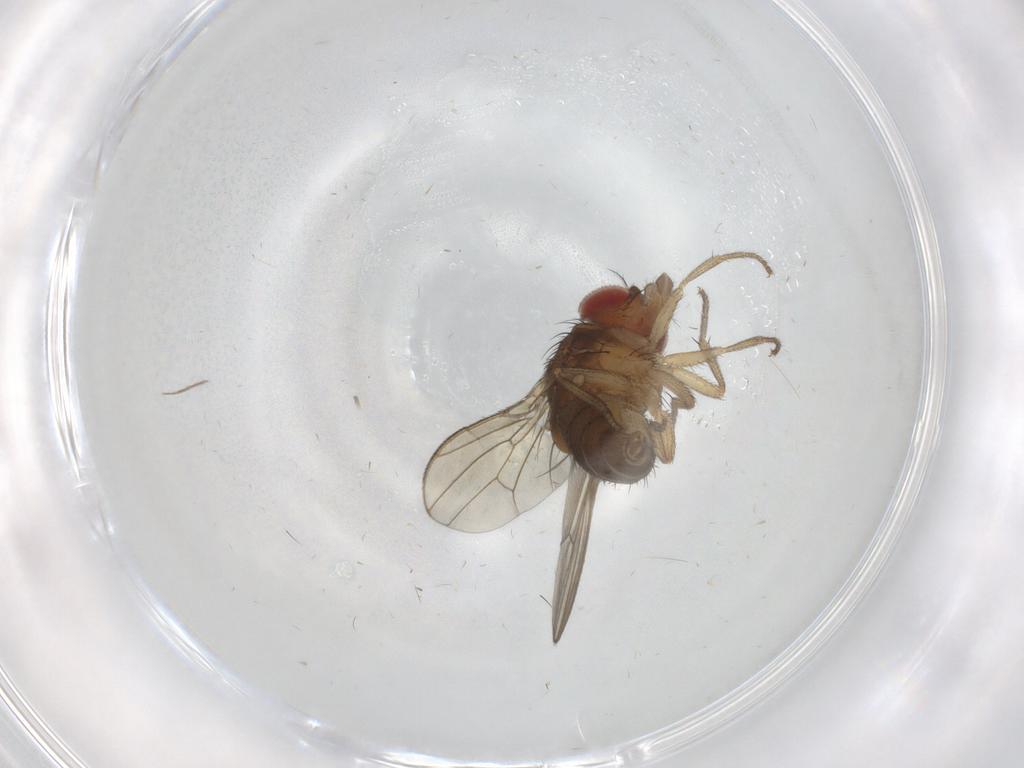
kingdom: Animalia
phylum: Arthropoda
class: Insecta
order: Diptera
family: Drosophilidae
